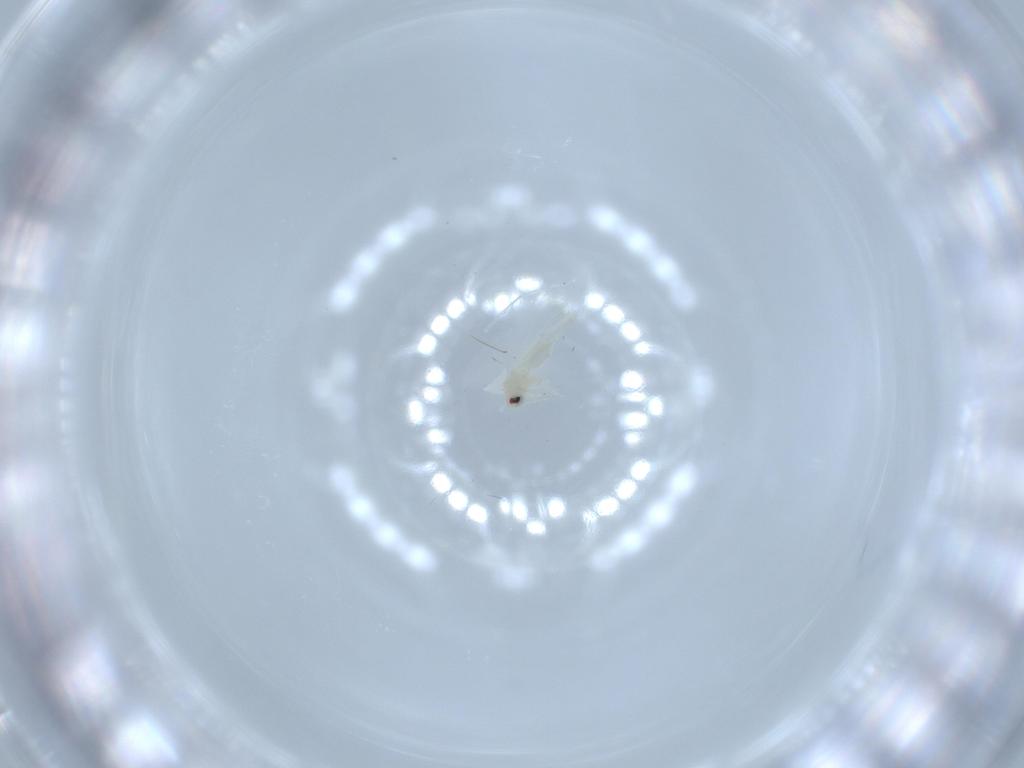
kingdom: Animalia
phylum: Arthropoda
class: Insecta
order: Hemiptera
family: Aleyrodidae
